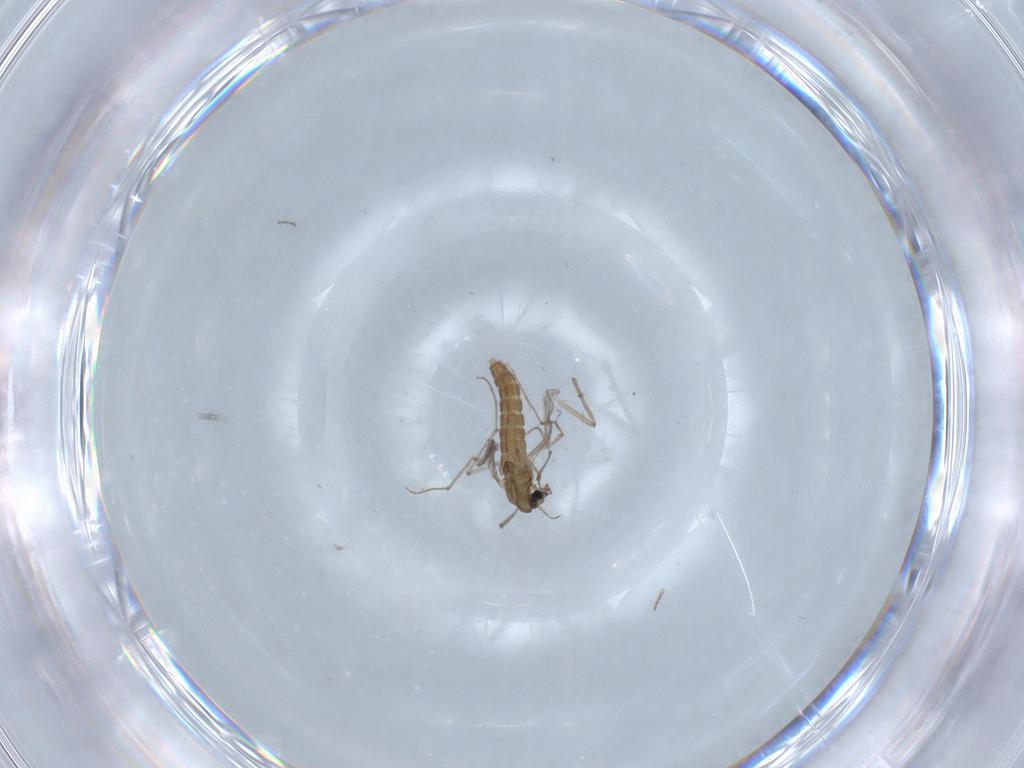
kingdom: Animalia
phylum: Arthropoda
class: Insecta
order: Diptera
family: Chironomidae
